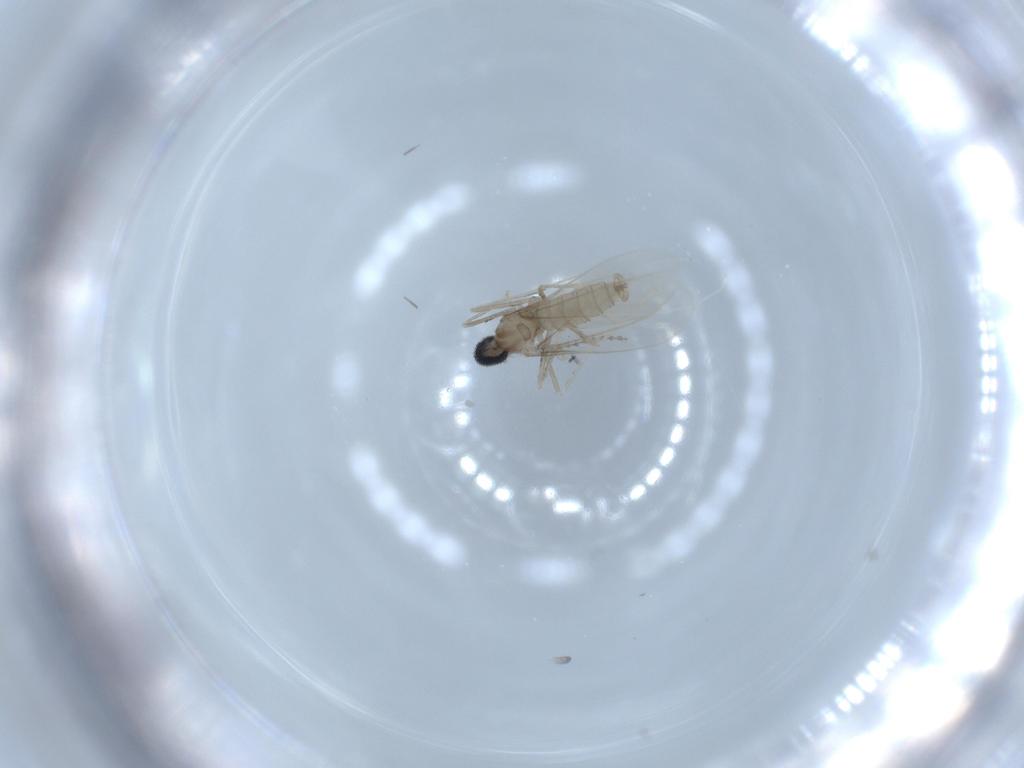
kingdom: Animalia
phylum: Arthropoda
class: Insecta
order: Diptera
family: Cecidomyiidae
